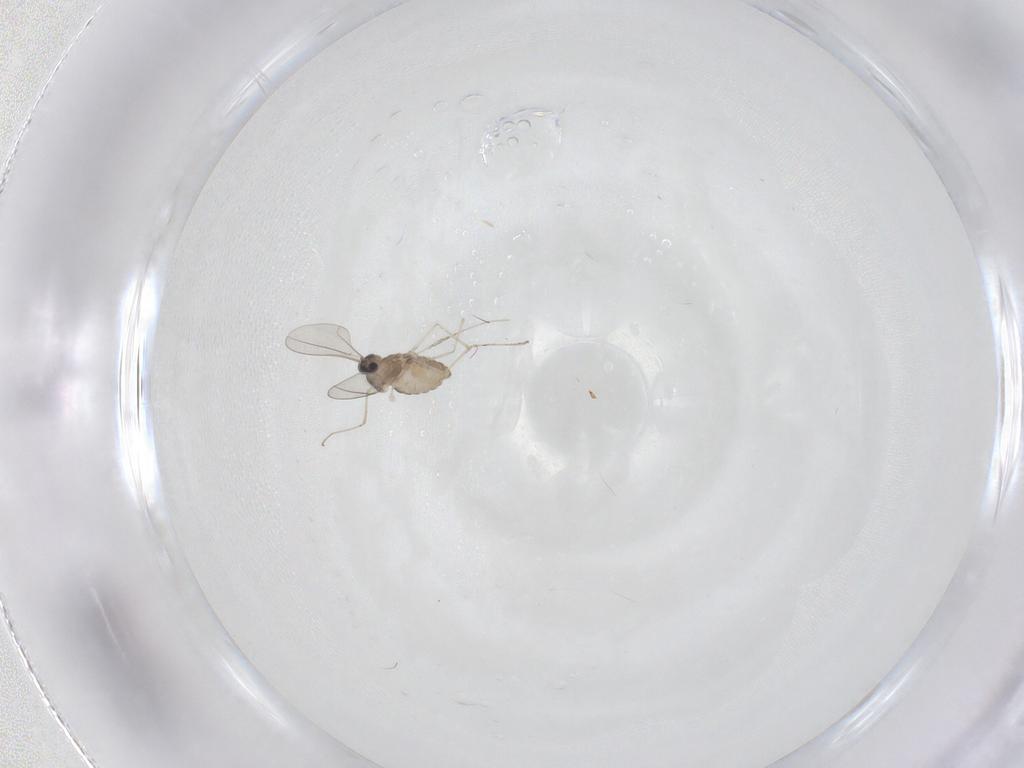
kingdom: Animalia
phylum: Arthropoda
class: Insecta
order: Diptera
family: Cecidomyiidae
